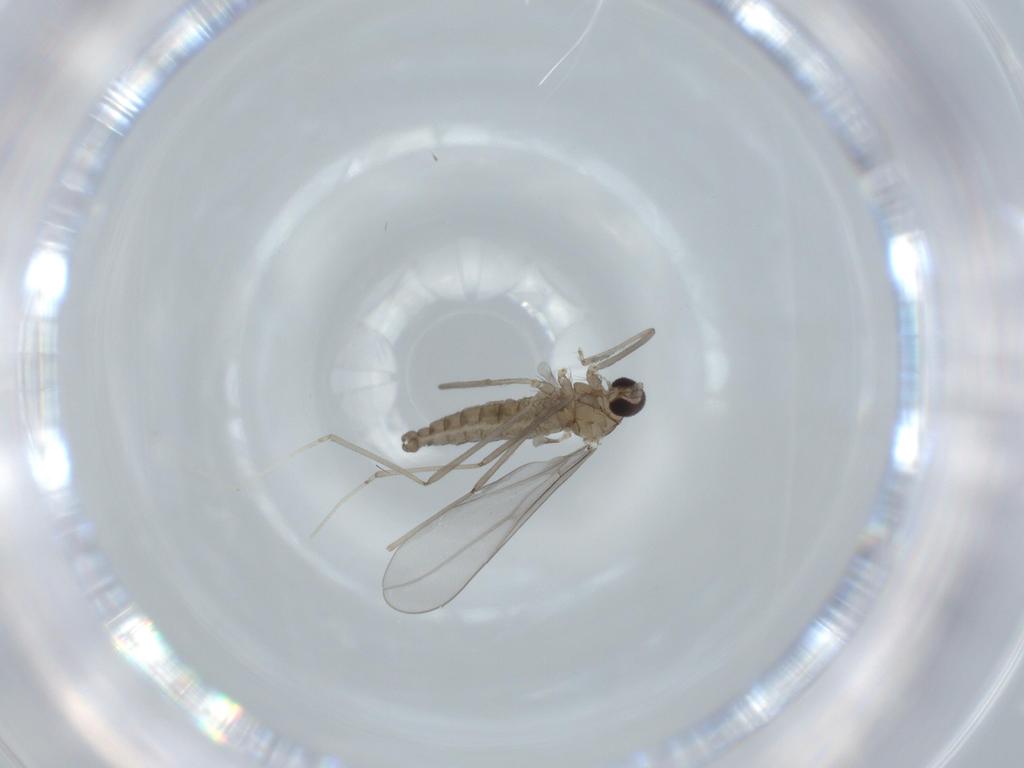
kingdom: Animalia
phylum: Arthropoda
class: Insecta
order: Diptera
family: Cecidomyiidae
